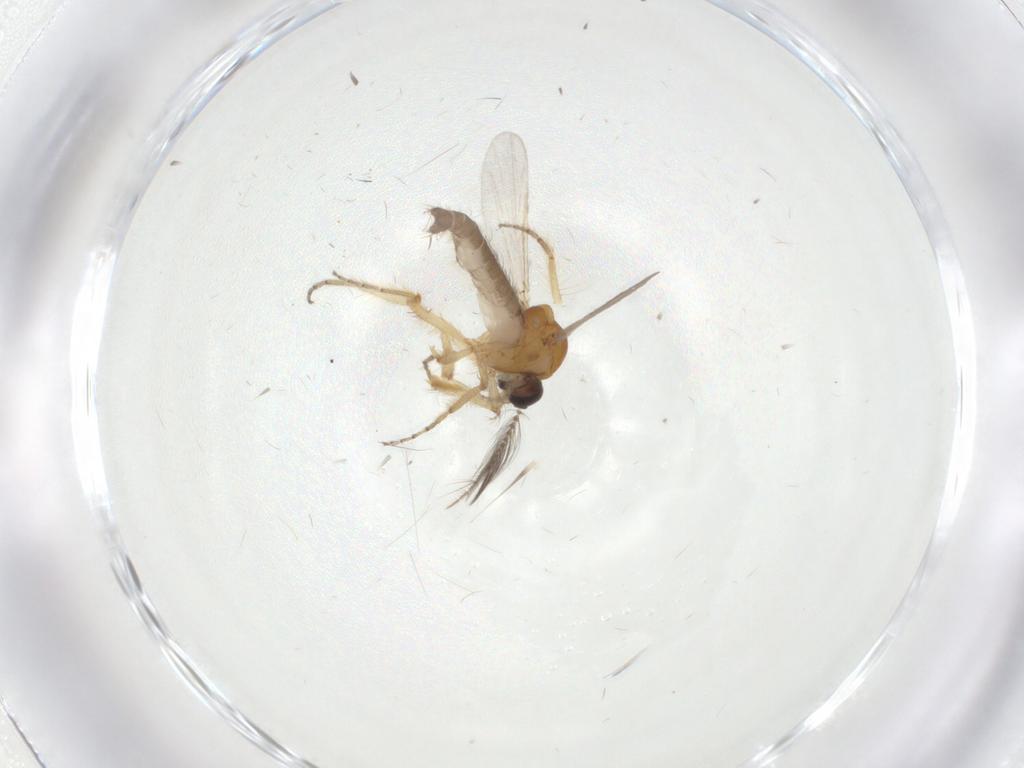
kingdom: Animalia
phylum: Arthropoda
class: Insecta
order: Diptera
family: Ceratopogonidae
